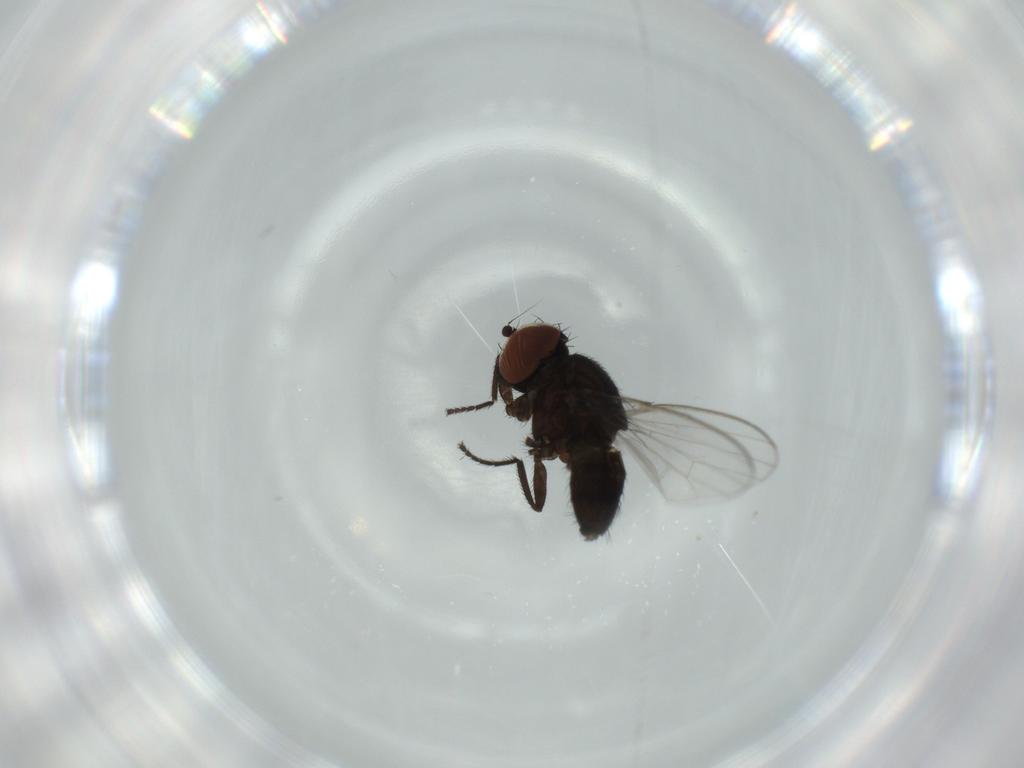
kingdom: Animalia
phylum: Arthropoda
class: Insecta
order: Diptera
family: Milichiidae
